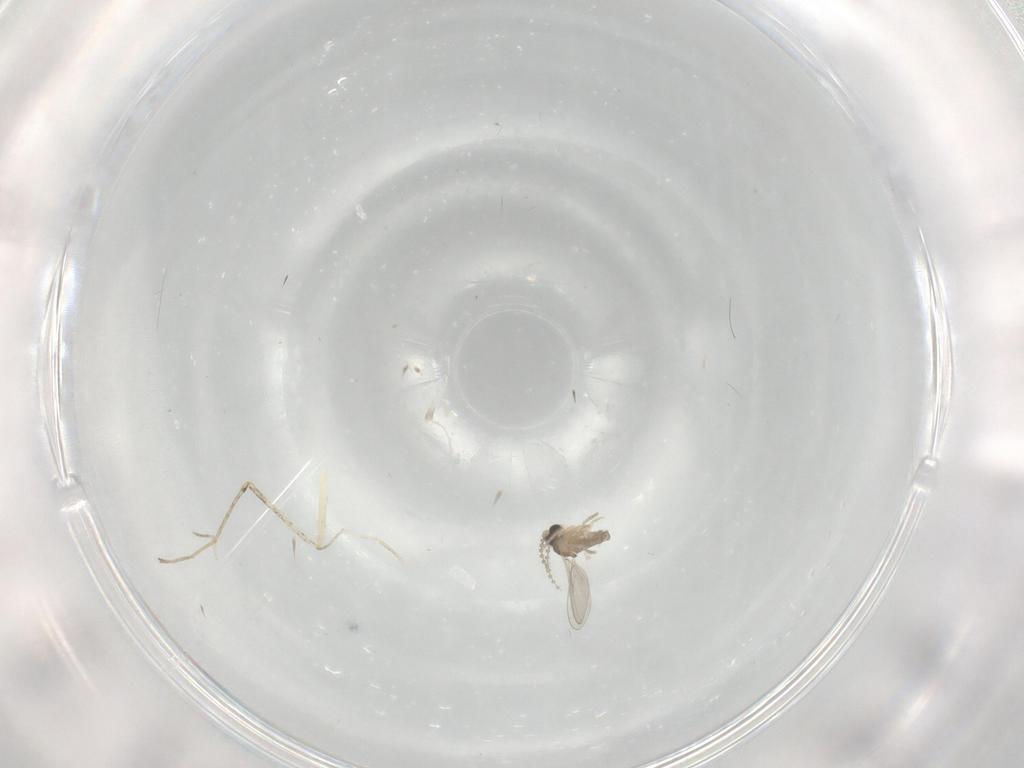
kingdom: Animalia
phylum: Arthropoda
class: Insecta
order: Diptera
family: Cecidomyiidae
